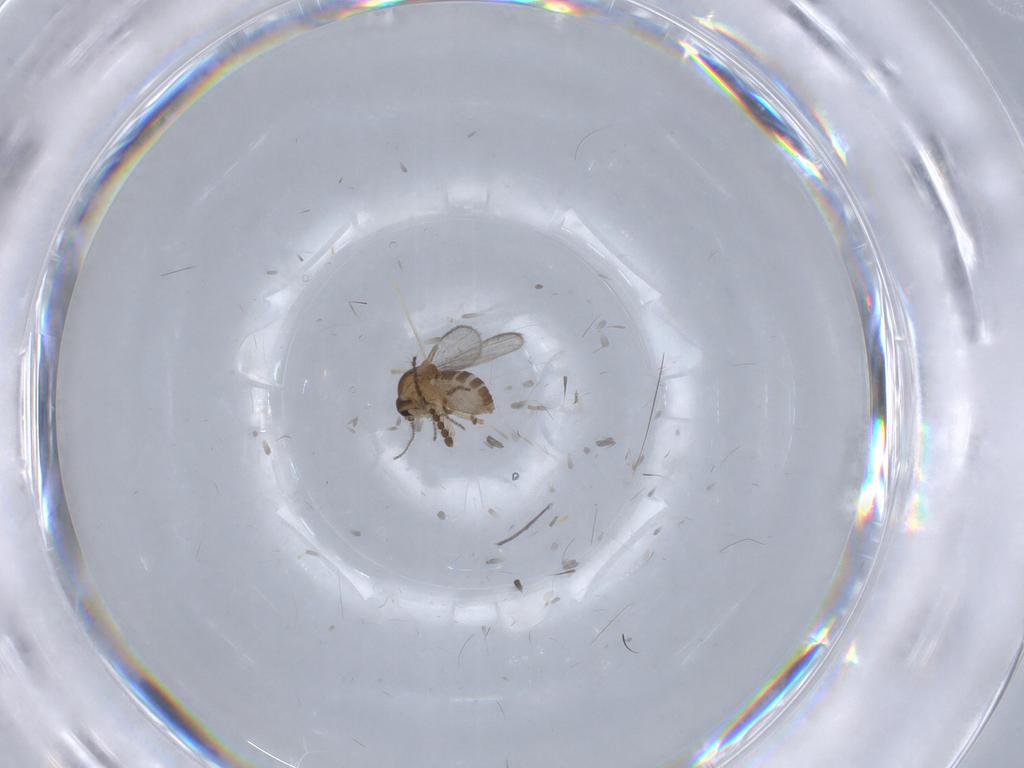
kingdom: Animalia
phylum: Arthropoda
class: Insecta
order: Diptera
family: Ceratopogonidae
